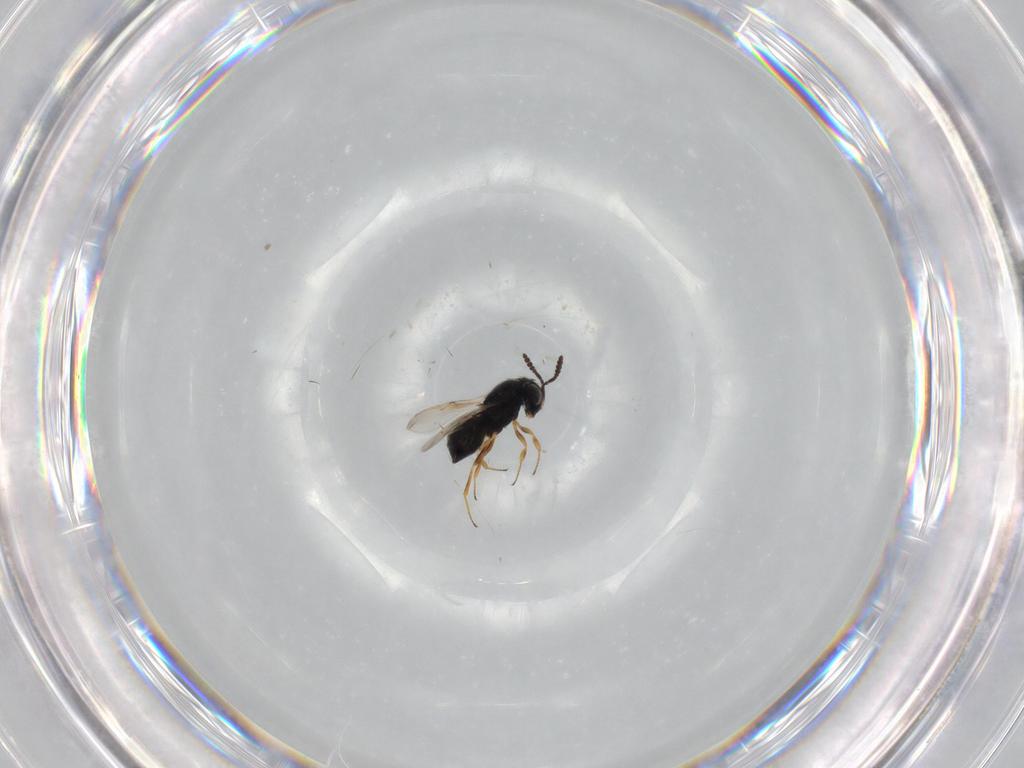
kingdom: Animalia
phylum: Arthropoda
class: Insecta
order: Hymenoptera
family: Scelionidae
